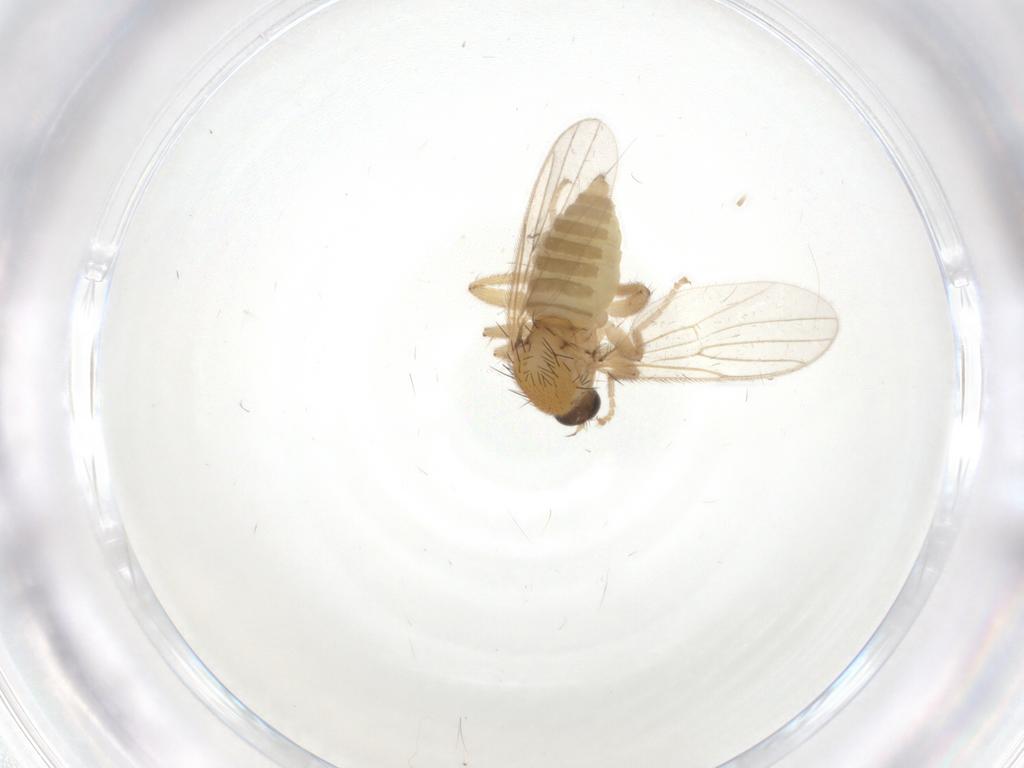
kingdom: Animalia
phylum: Arthropoda
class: Insecta
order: Diptera
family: Hybotidae
